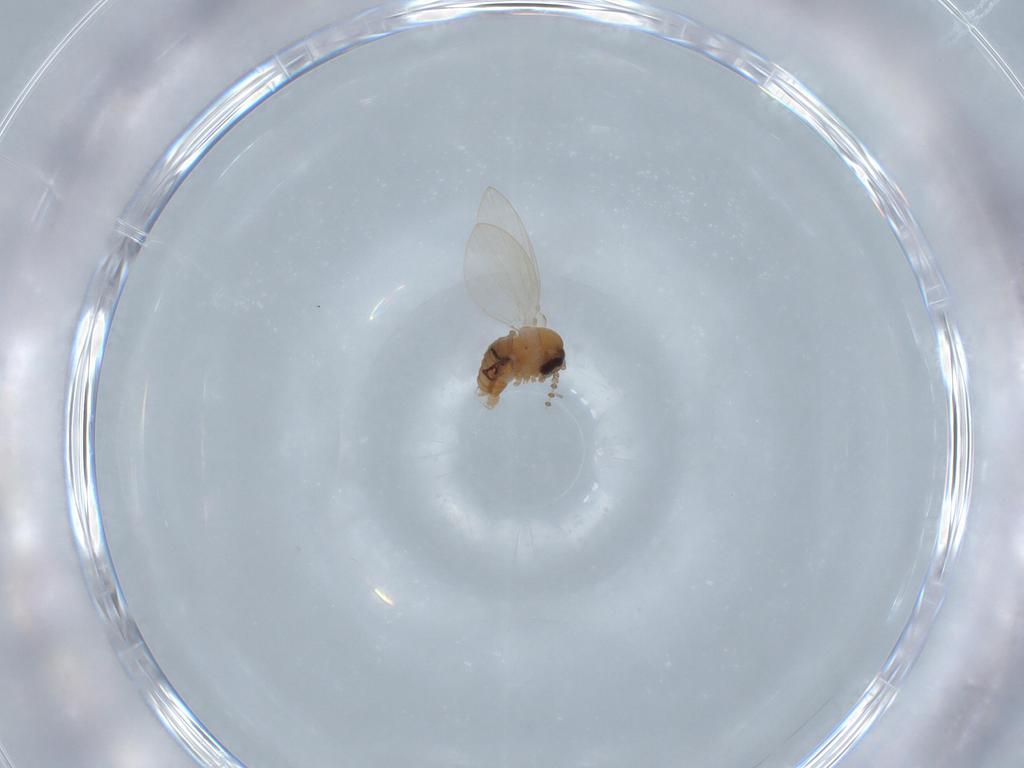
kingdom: Animalia
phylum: Arthropoda
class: Insecta
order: Diptera
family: Psychodidae
